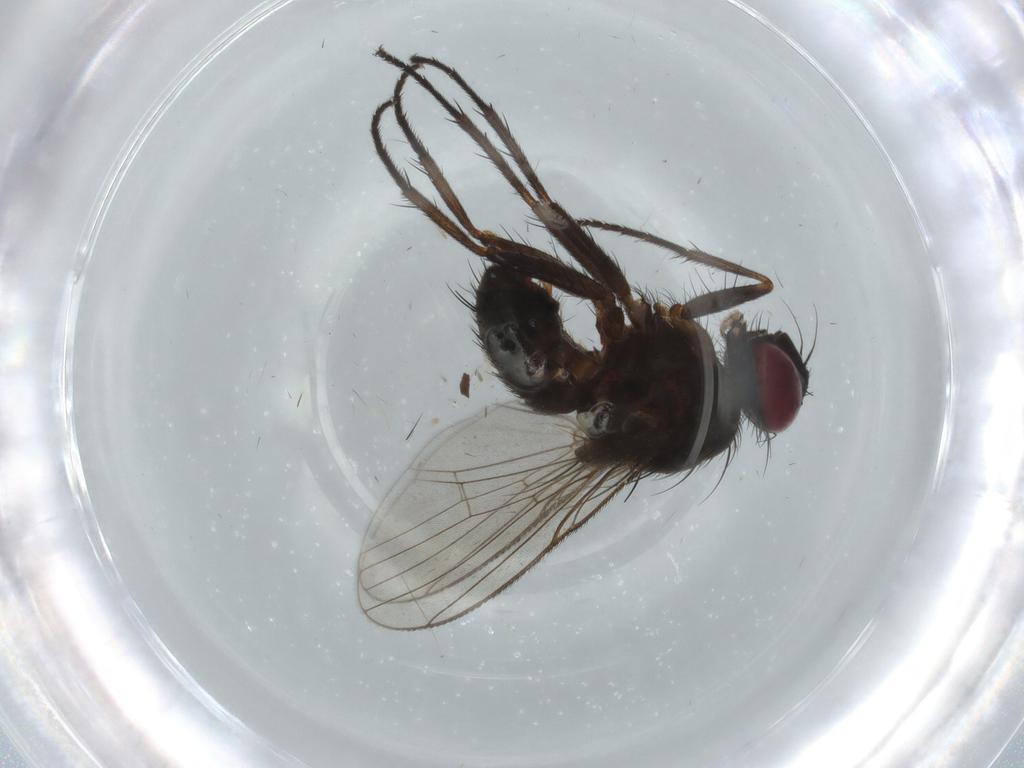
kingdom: Animalia
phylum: Arthropoda
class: Insecta
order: Diptera
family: Muscidae
